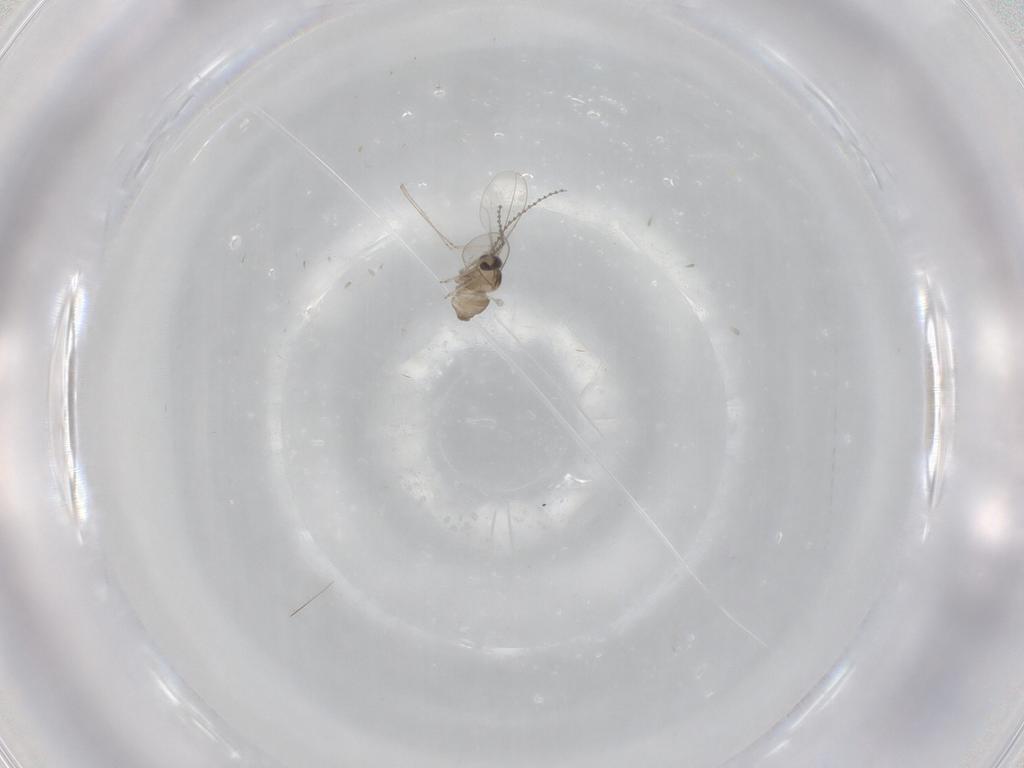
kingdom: Animalia
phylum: Arthropoda
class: Insecta
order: Diptera
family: Cecidomyiidae
